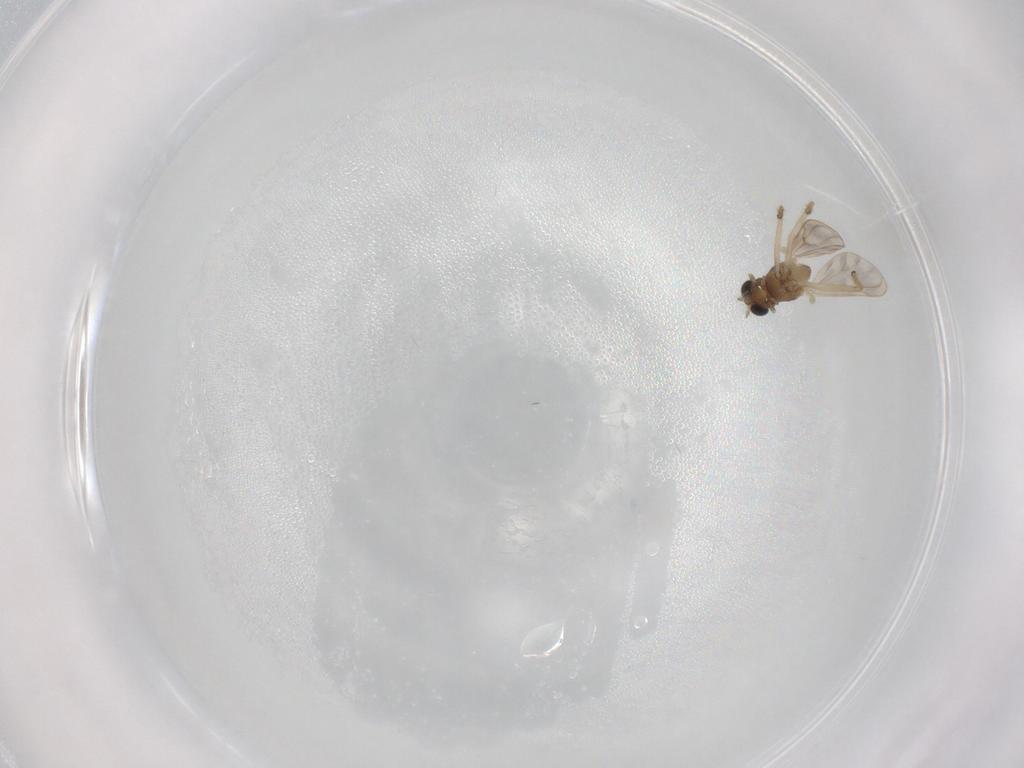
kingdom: Animalia
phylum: Arthropoda
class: Insecta
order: Diptera
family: Chironomidae
